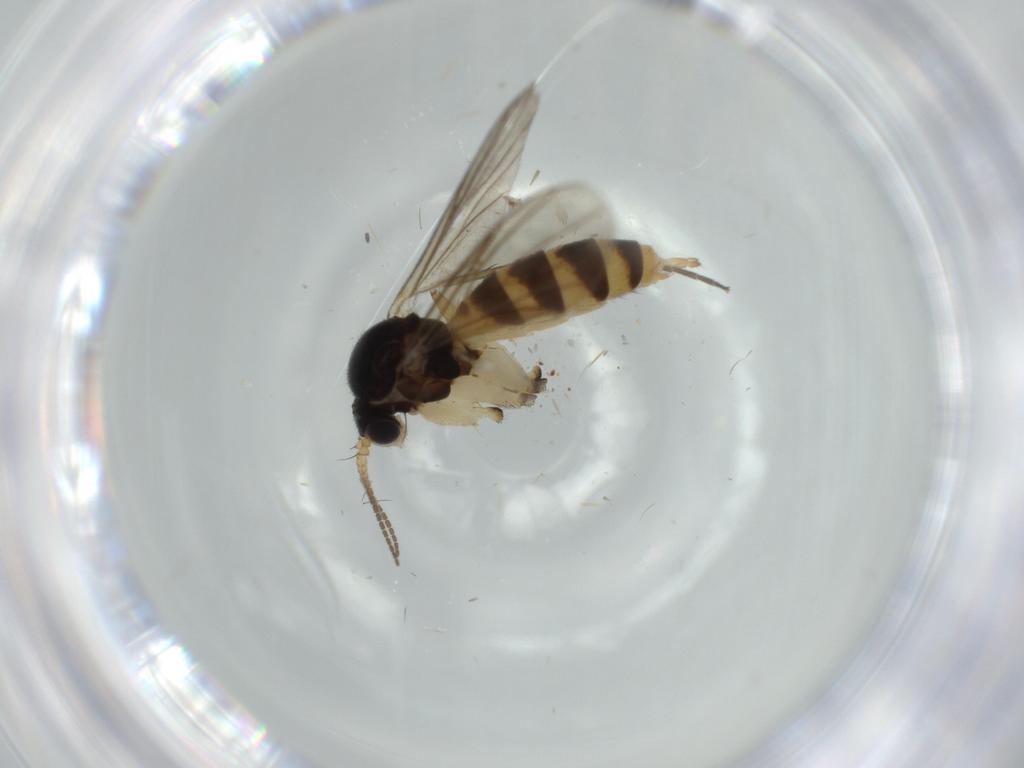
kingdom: Animalia
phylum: Arthropoda
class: Insecta
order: Diptera
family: Mycetophilidae
